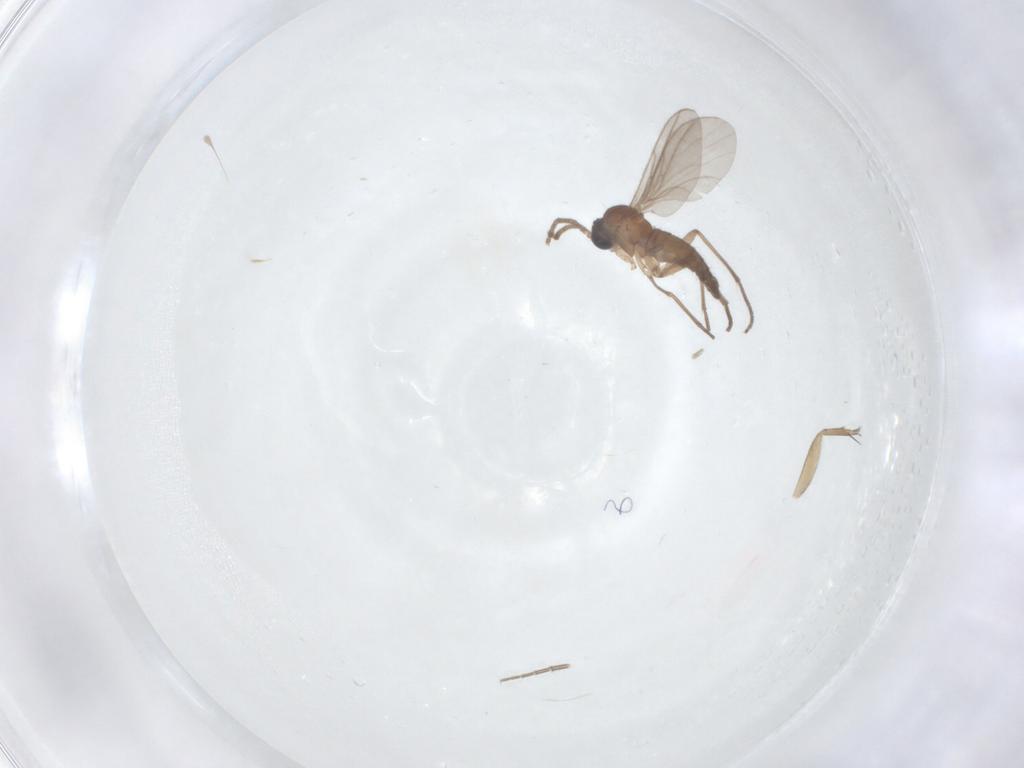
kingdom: Animalia
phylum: Arthropoda
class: Insecta
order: Diptera
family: Phoridae
